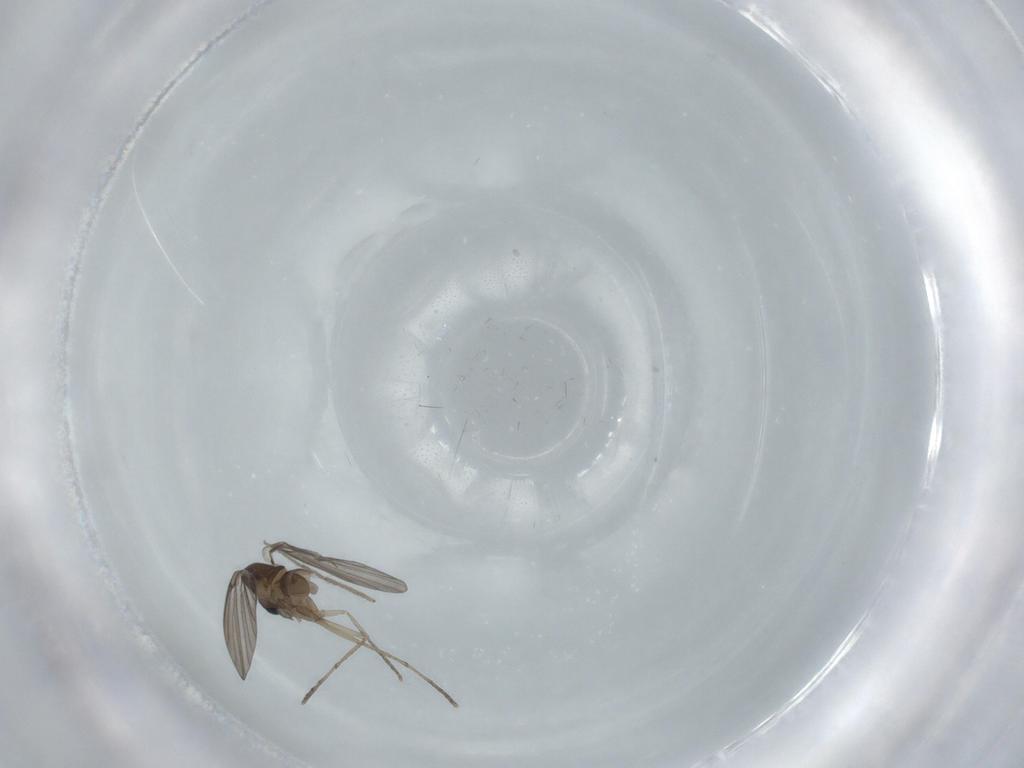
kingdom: Animalia
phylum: Arthropoda
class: Insecta
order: Diptera
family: Psychodidae
